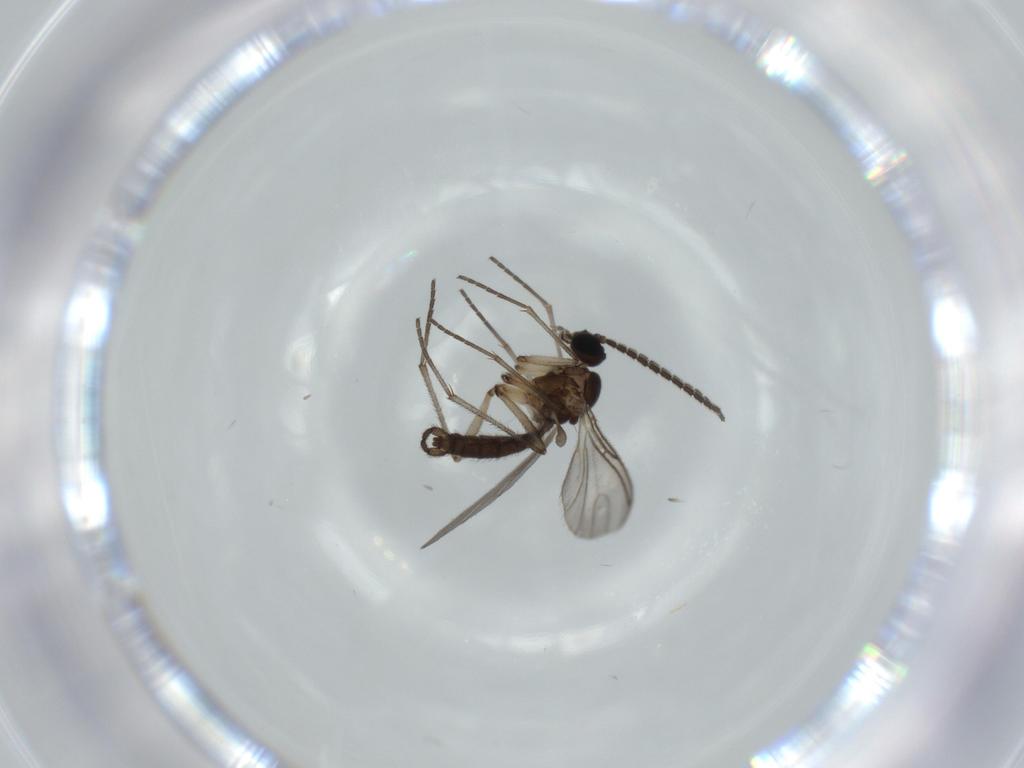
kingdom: Animalia
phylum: Arthropoda
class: Insecta
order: Diptera
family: Sciaridae
